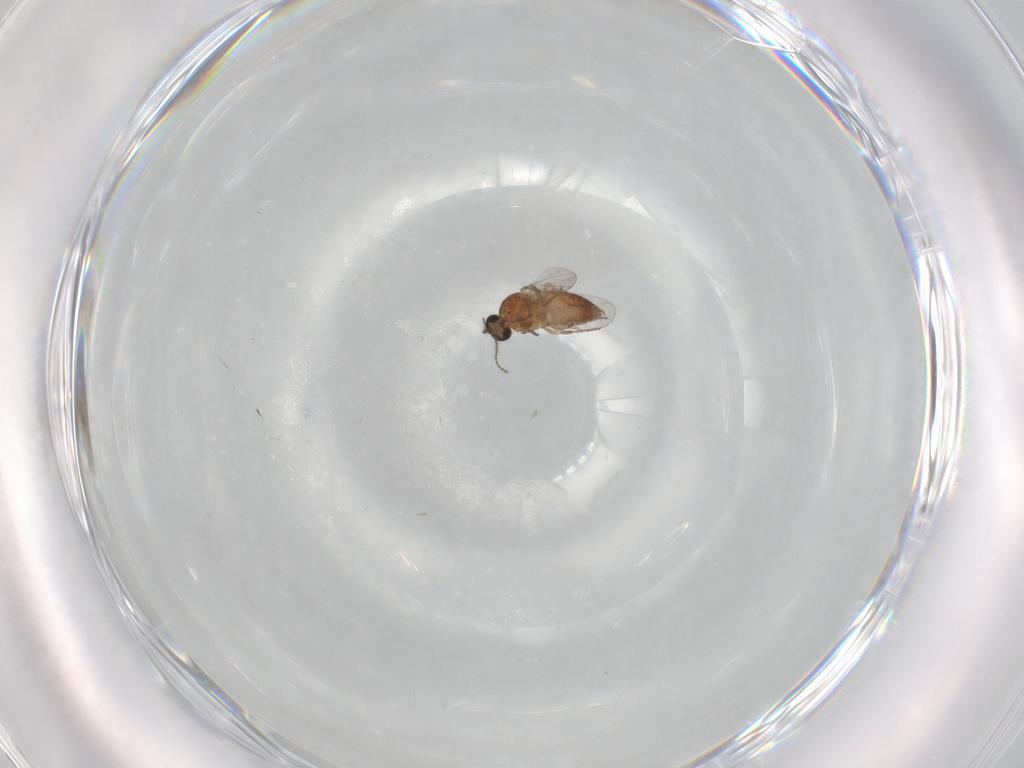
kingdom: Animalia
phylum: Arthropoda
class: Insecta
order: Diptera
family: Ceratopogonidae
